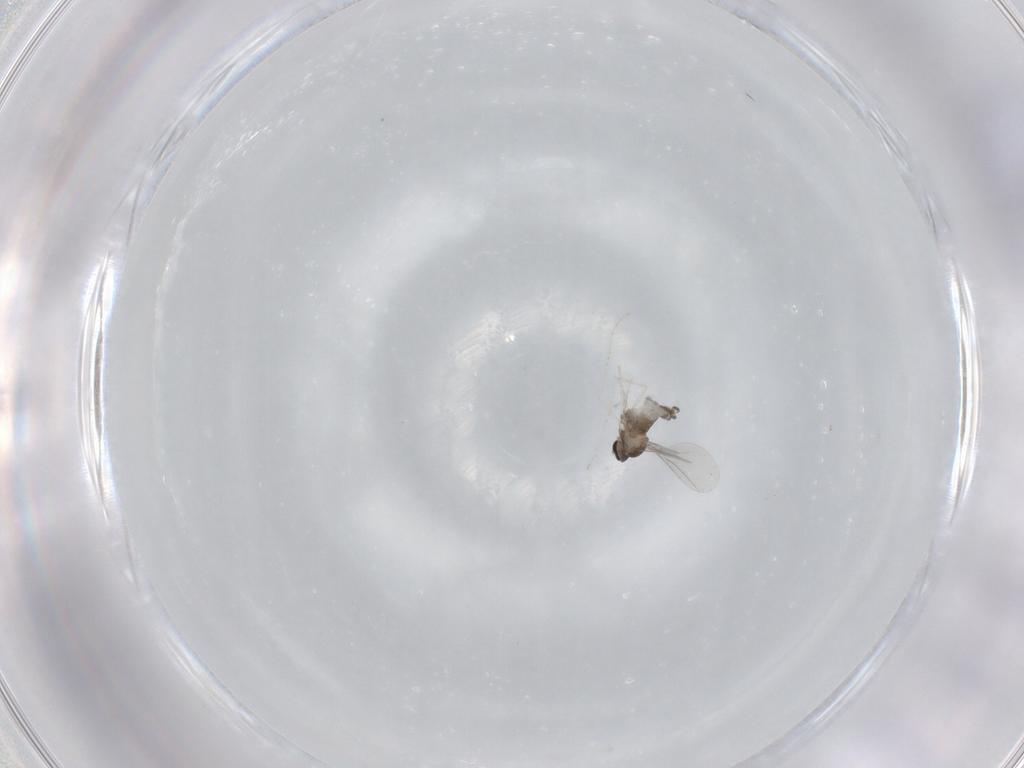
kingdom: Animalia
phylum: Arthropoda
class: Insecta
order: Diptera
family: Cecidomyiidae
